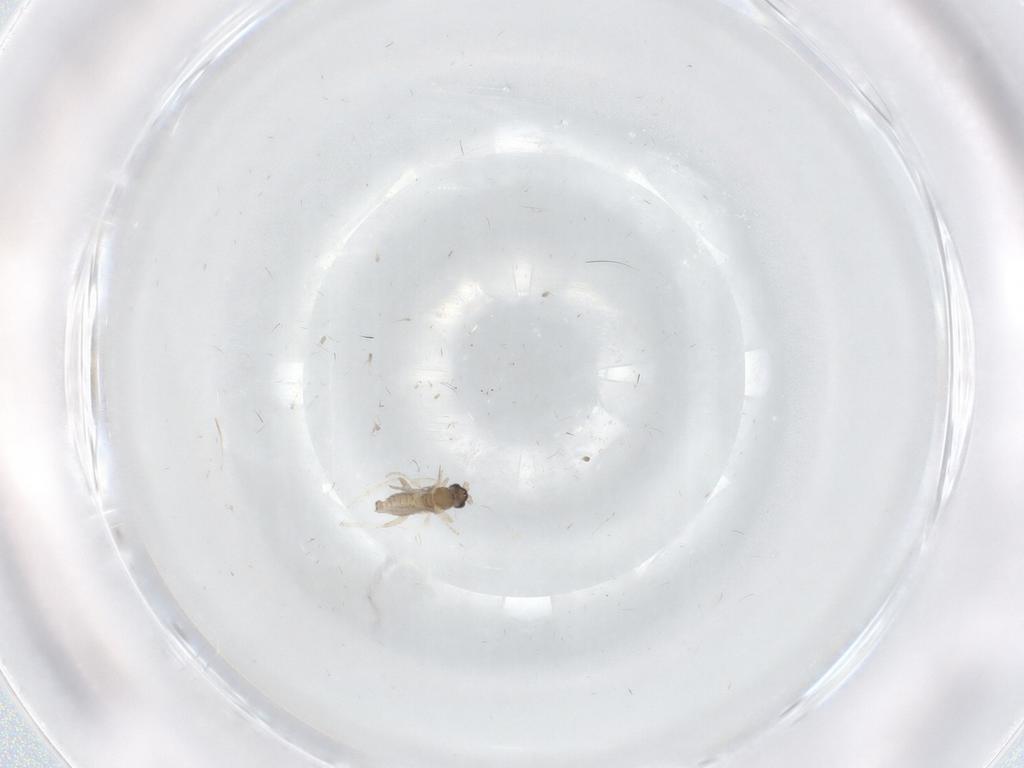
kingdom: Animalia
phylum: Arthropoda
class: Insecta
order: Diptera
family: Cecidomyiidae
